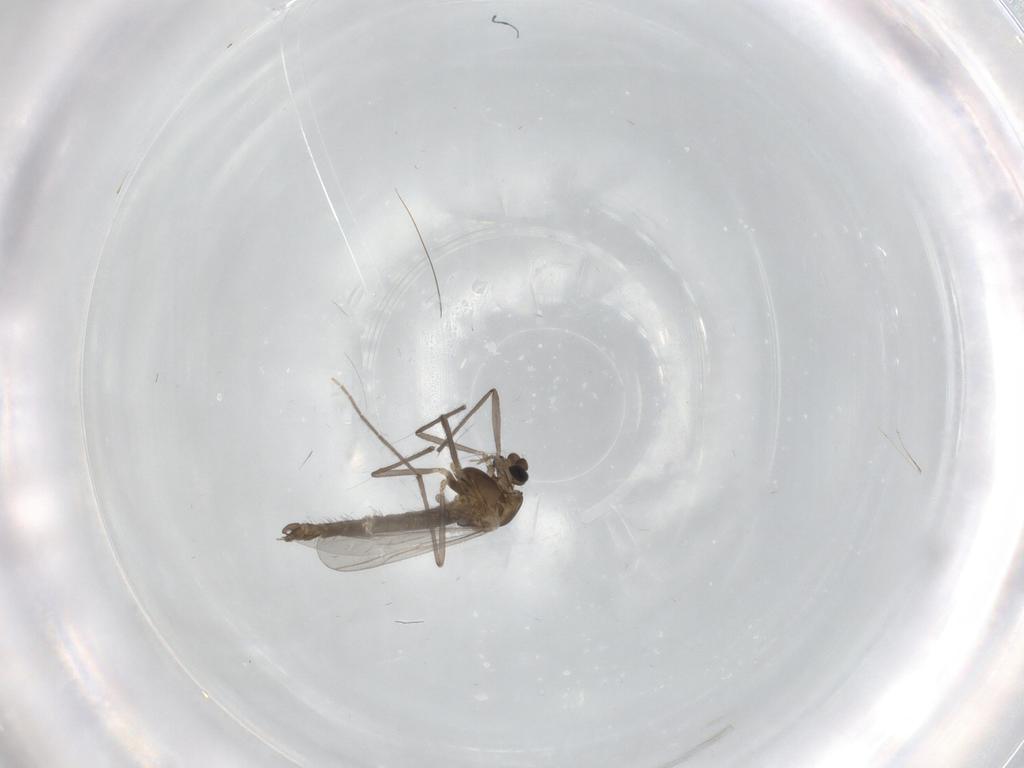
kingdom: Animalia
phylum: Arthropoda
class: Insecta
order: Diptera
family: Chironomidae
